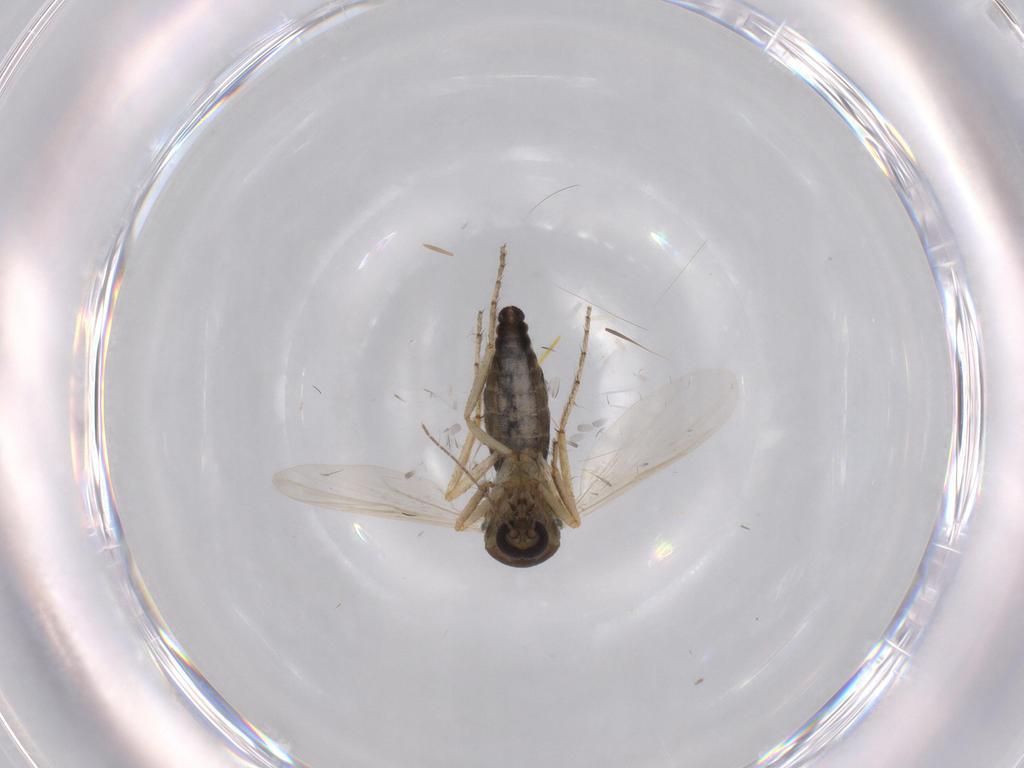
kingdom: Animalia
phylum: Arthropoda
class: Insecta
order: Diptera
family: Ceratopogonidae
